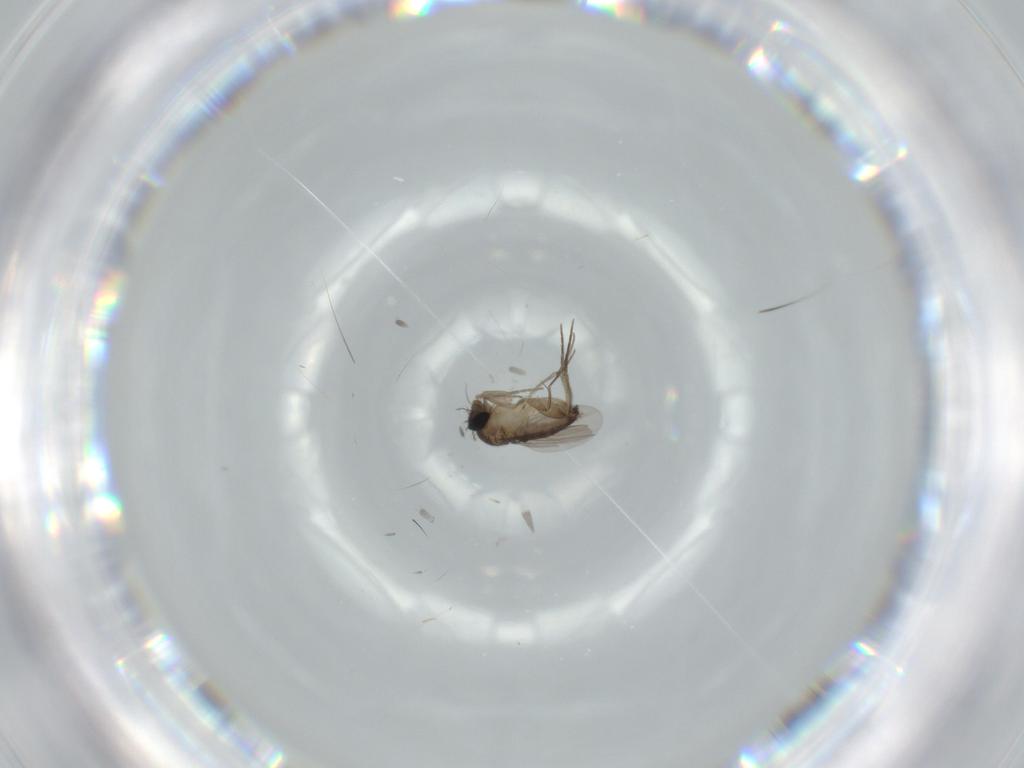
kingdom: Animalia
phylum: Arthropoda
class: Insecta
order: Diptera
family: Phoridae
